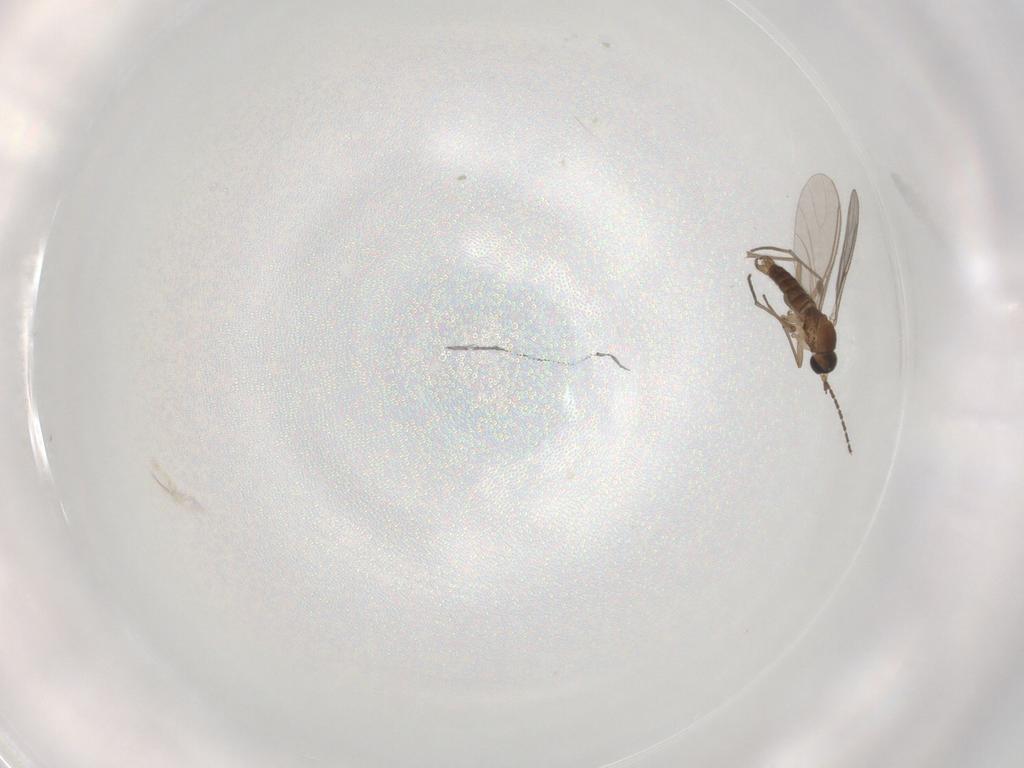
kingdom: Animalia
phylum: Arthropoda
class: Insecta
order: Diptera
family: Sciaridae
